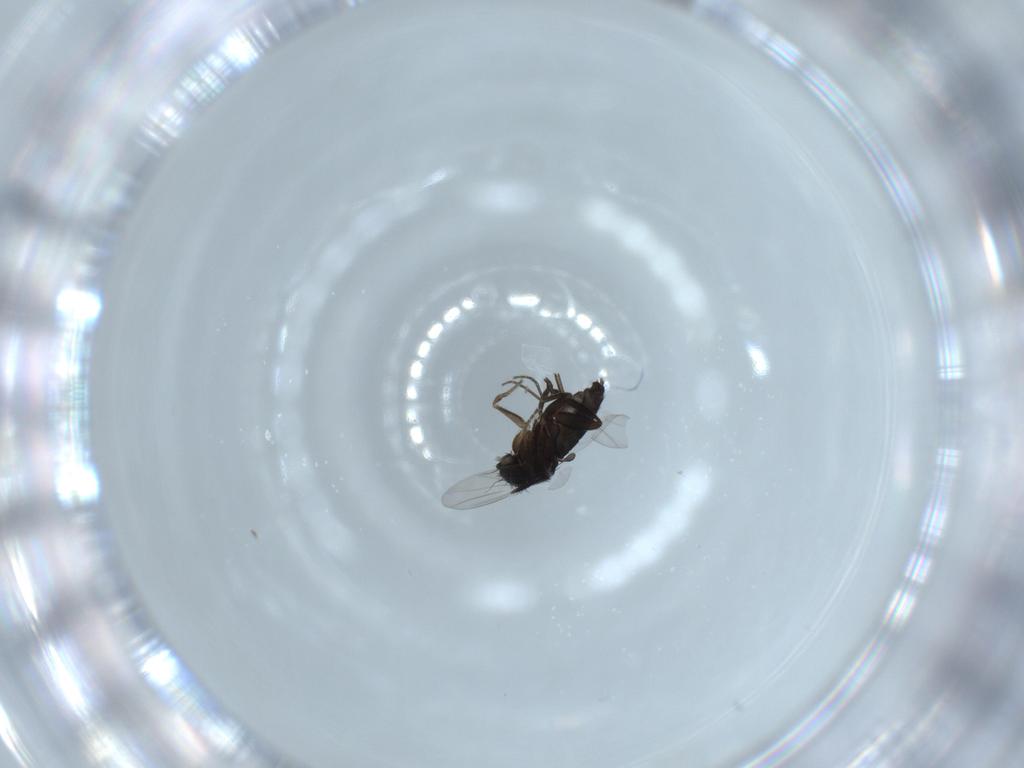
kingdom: Animalia
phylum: Arthropoda
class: Insecta
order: Diptera
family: Phoridae
